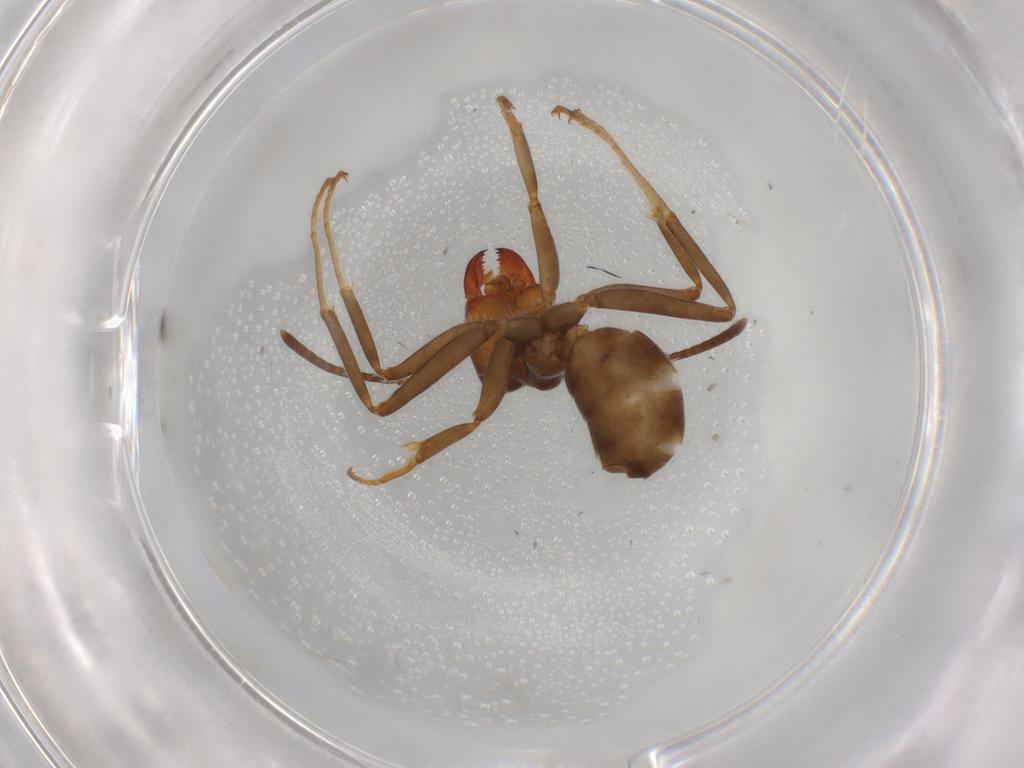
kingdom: Animalia
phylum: Arthropoda
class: Insecta
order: Hymenoptera
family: Formicidae
